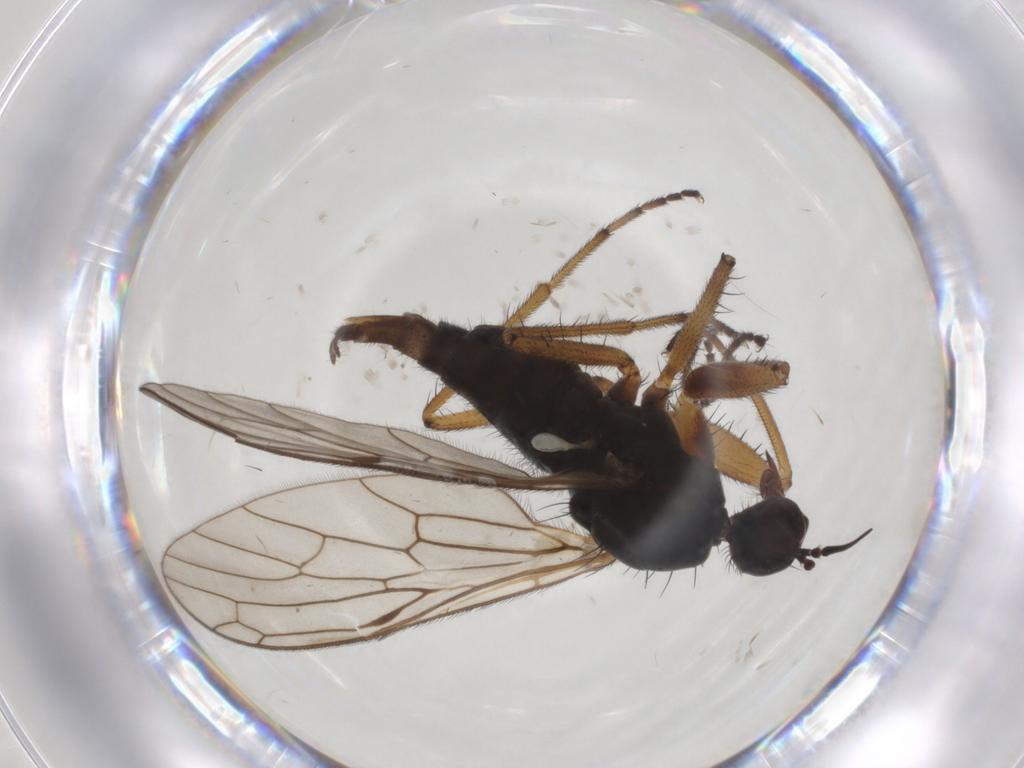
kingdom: Animalia
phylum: Arthropoda
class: Insecta
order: Diptera
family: Empididae
